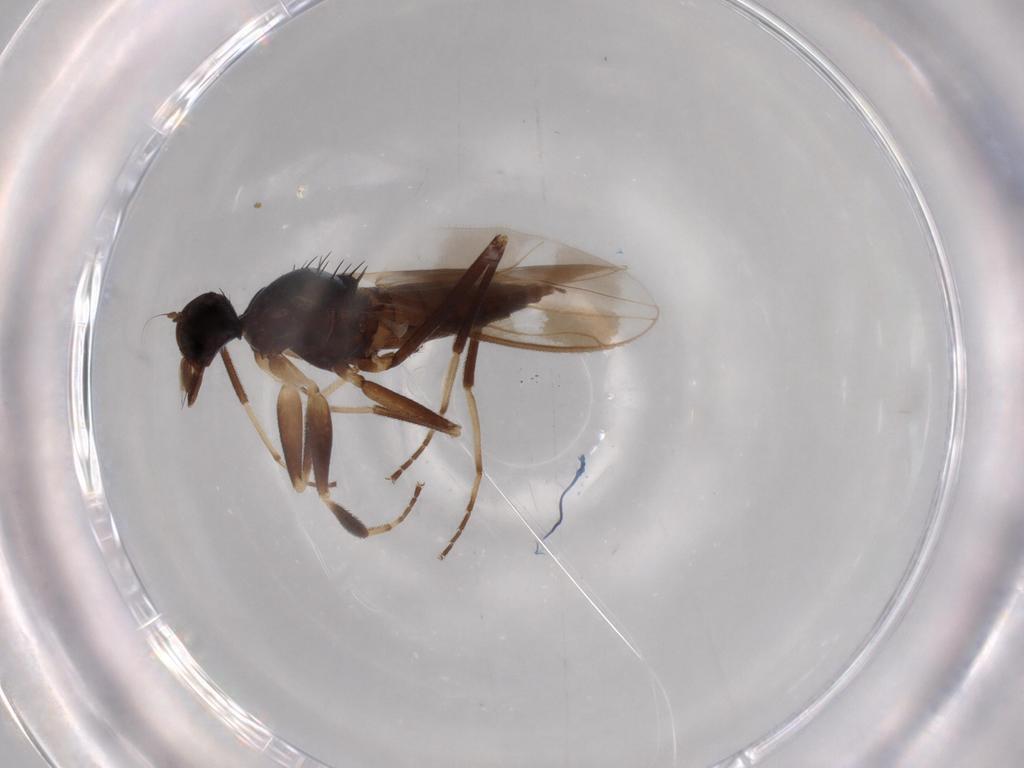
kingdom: Animalia
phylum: Arthropoda
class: Insecta
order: Diptera
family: Hybotidae
